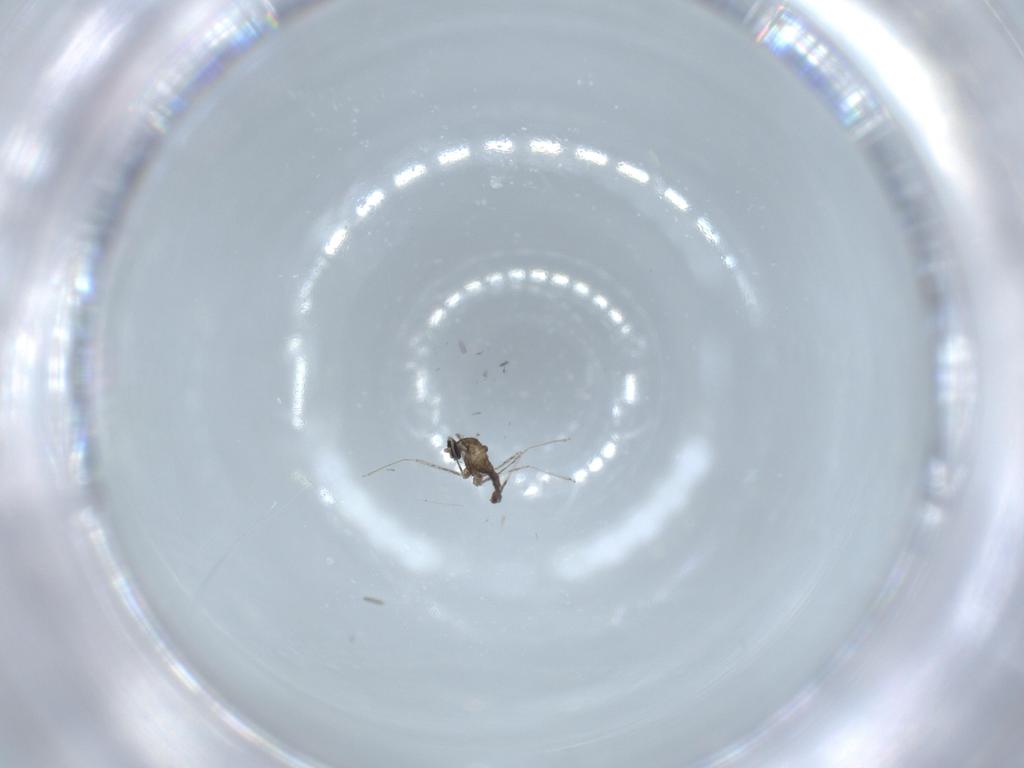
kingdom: Animalia
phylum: Arthropoda
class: Insecta
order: Diptera
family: Cecidomyiidae
